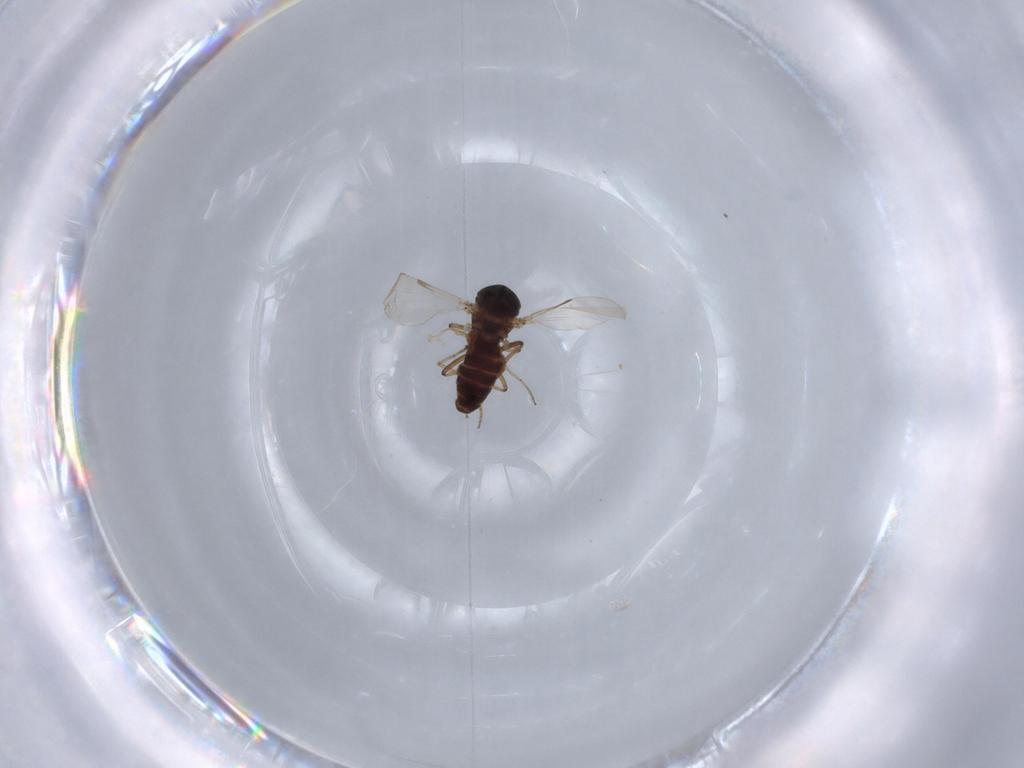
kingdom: Animalia
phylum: Arthropoda
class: Insecta
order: Diptera
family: Ceratopogonidae
